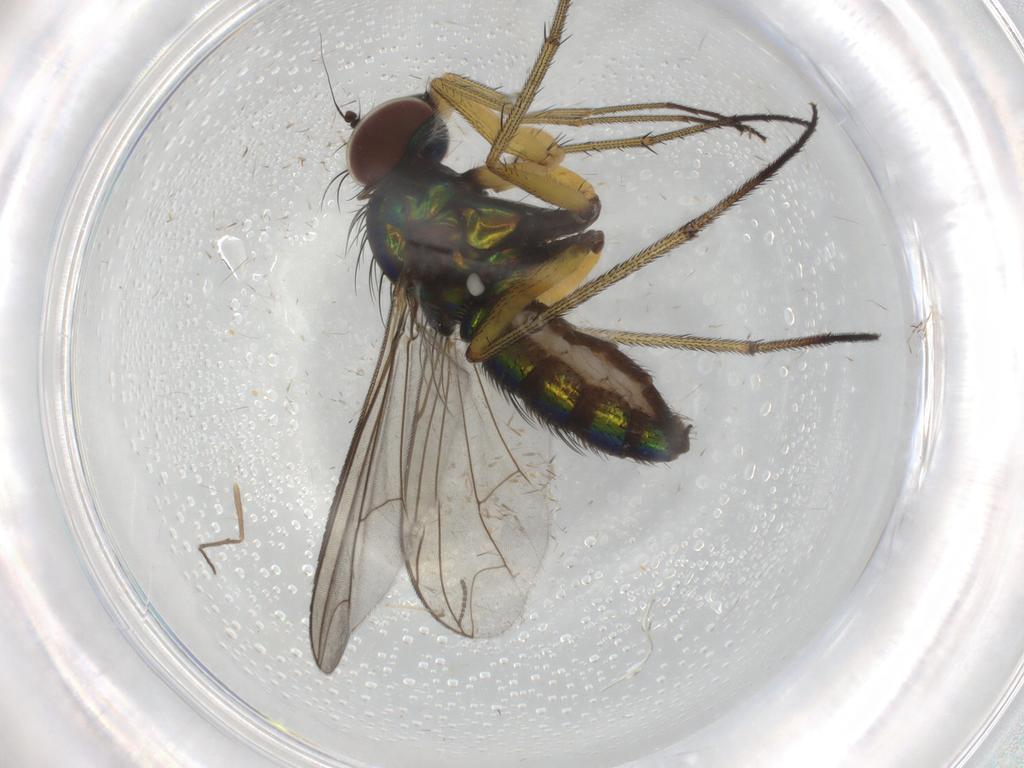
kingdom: Animalia
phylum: Arthropoda
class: Insecta
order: Diptera
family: Dolichopodidae
